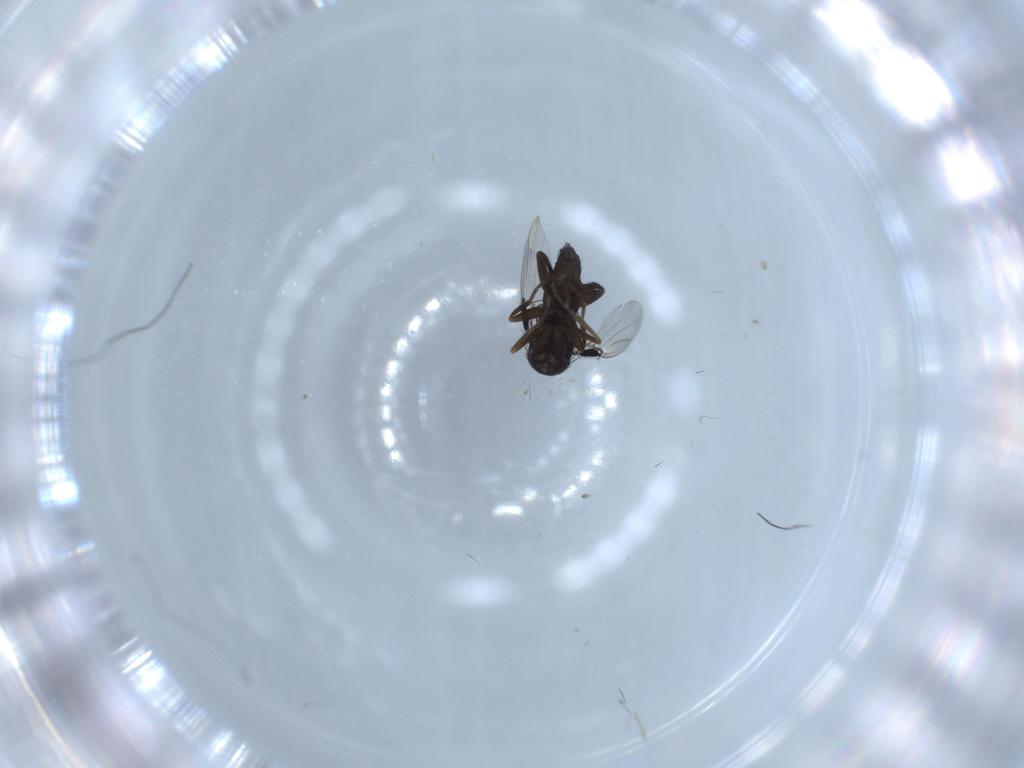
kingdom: Animalia
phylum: Arthropoda
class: Insecta
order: Diptera
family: Phoridae
